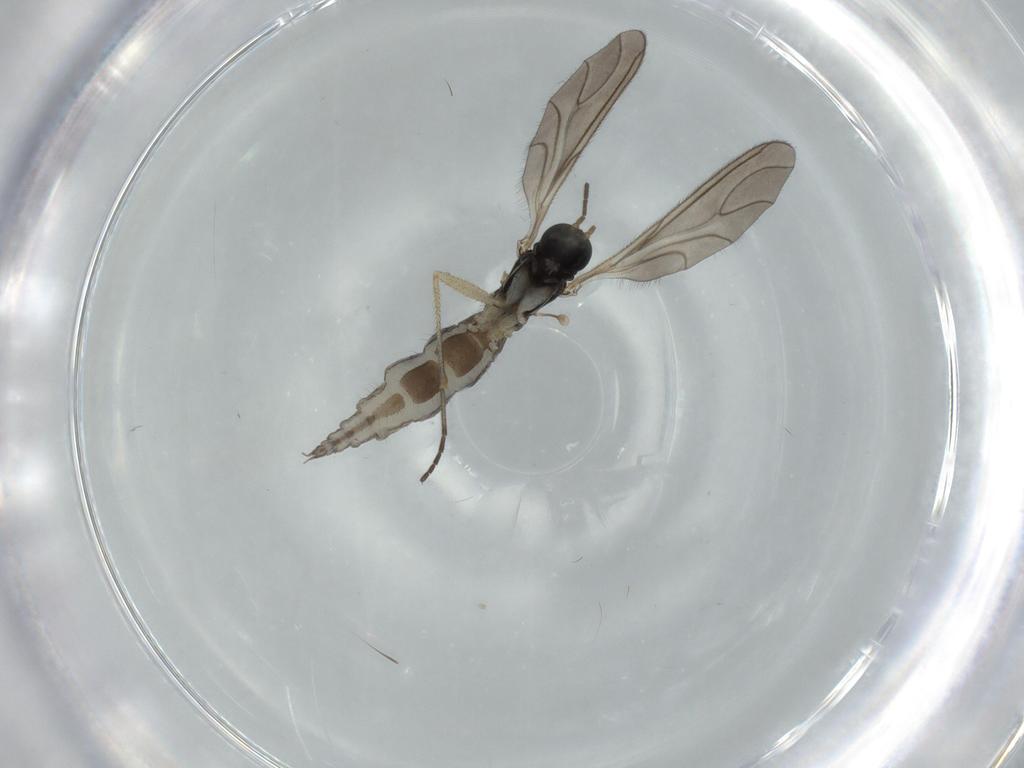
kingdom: Animalia
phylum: Arthropoda
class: Insecta
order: Diptera
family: Sciaridae
